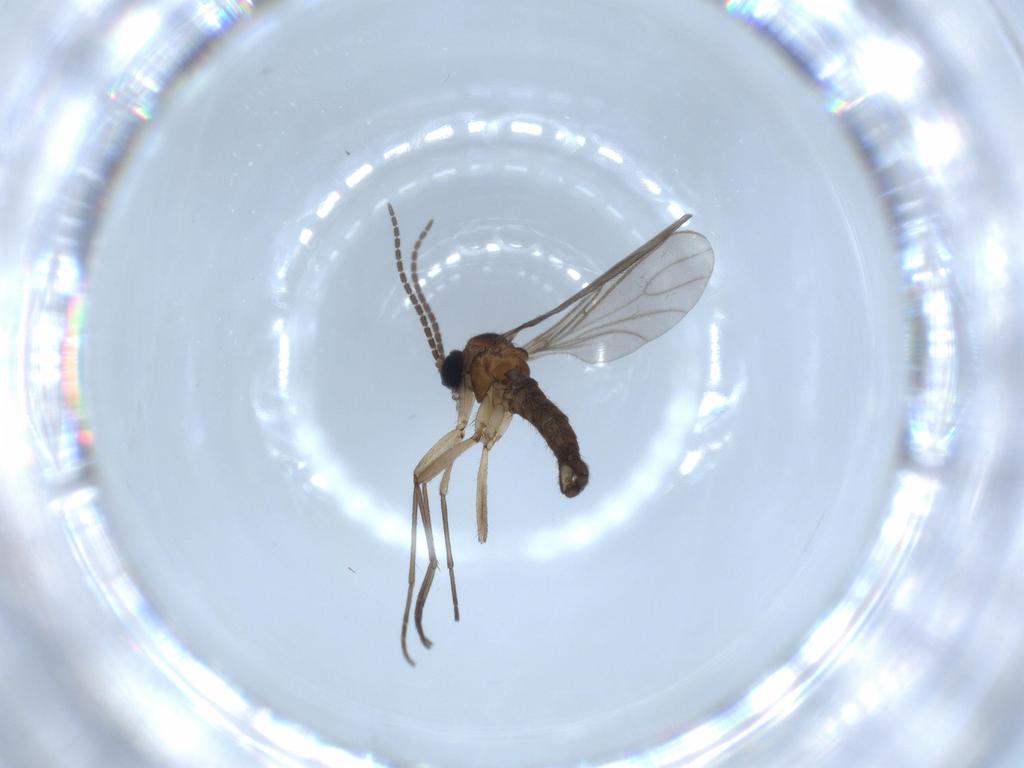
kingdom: Animalia
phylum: Arthropoda
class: Insecta
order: Diptera
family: Sciaridae
